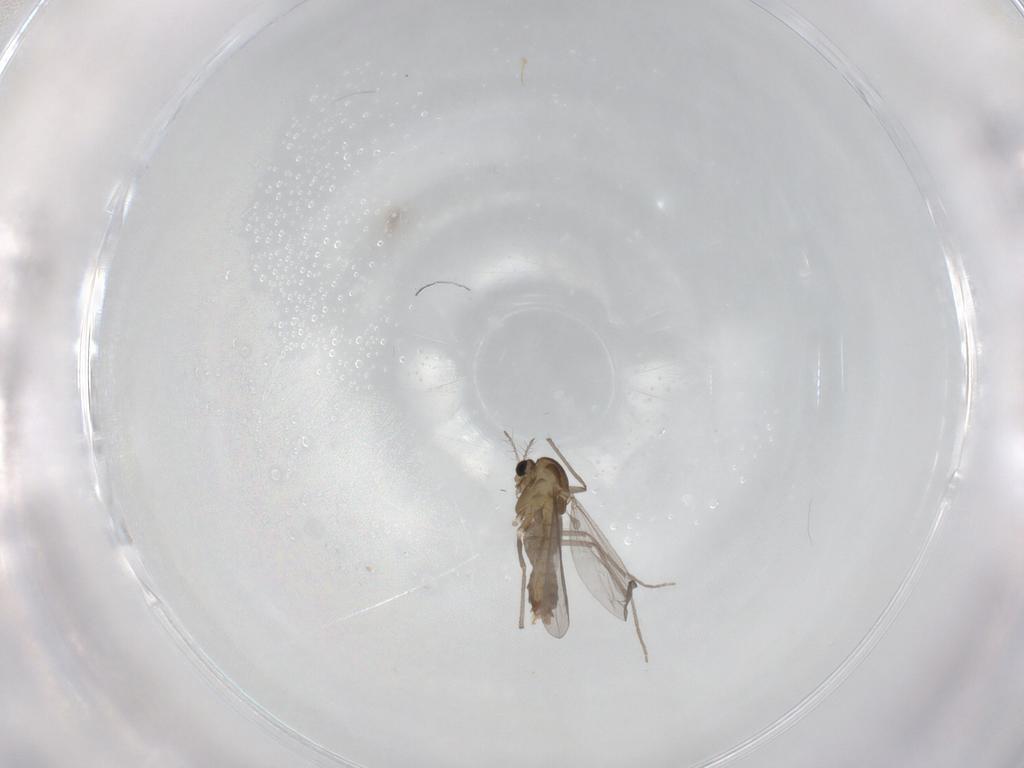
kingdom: Animalia
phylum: Arthropoda
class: Insecta
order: Diptera
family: Chironomidae
